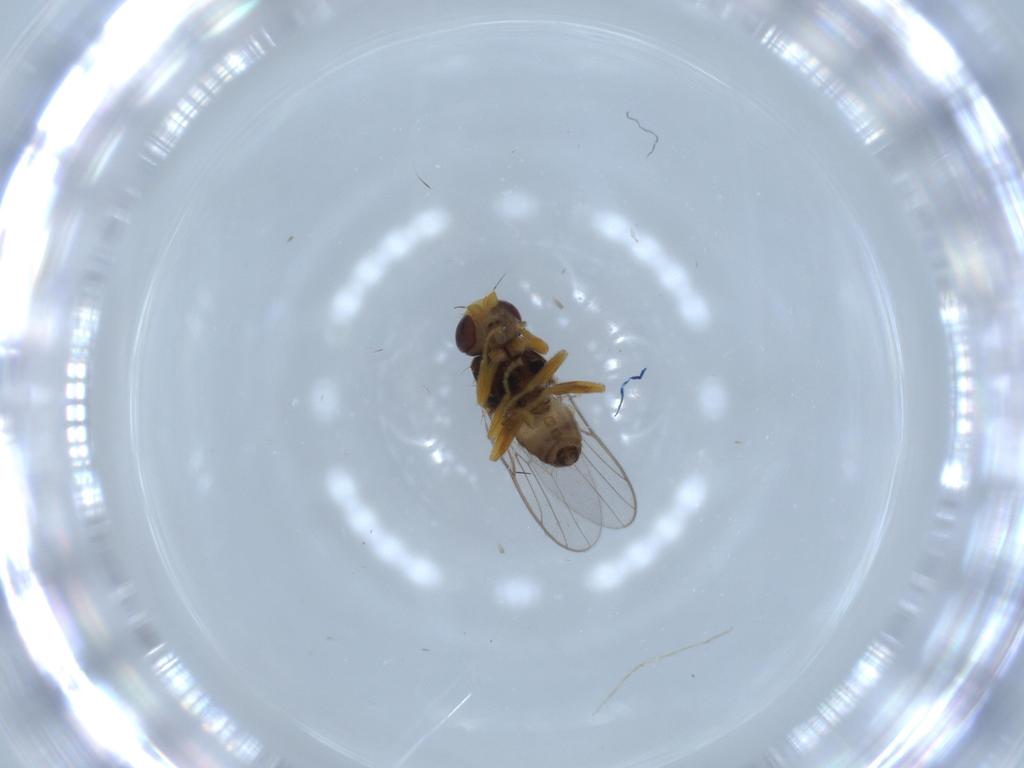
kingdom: Animalia
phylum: Arthropoda
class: Insecta
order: Diptera
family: Chloropidae
